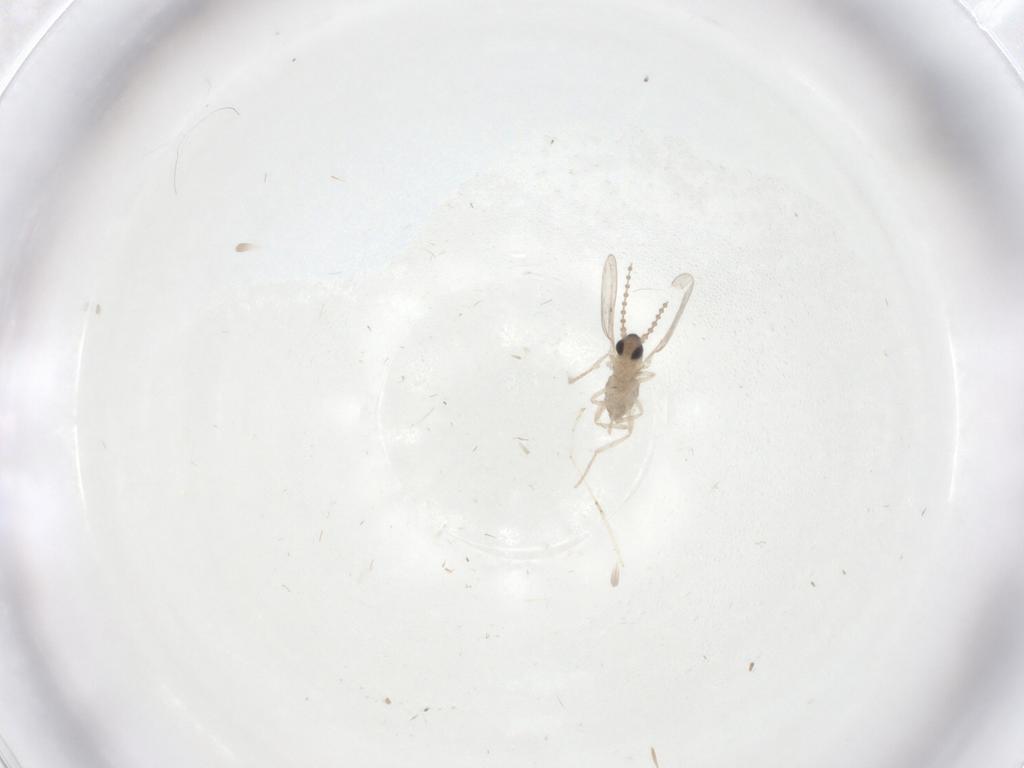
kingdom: Animalia
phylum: Arthropoda
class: Insecta
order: Diptera
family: Cecidomyiidae
